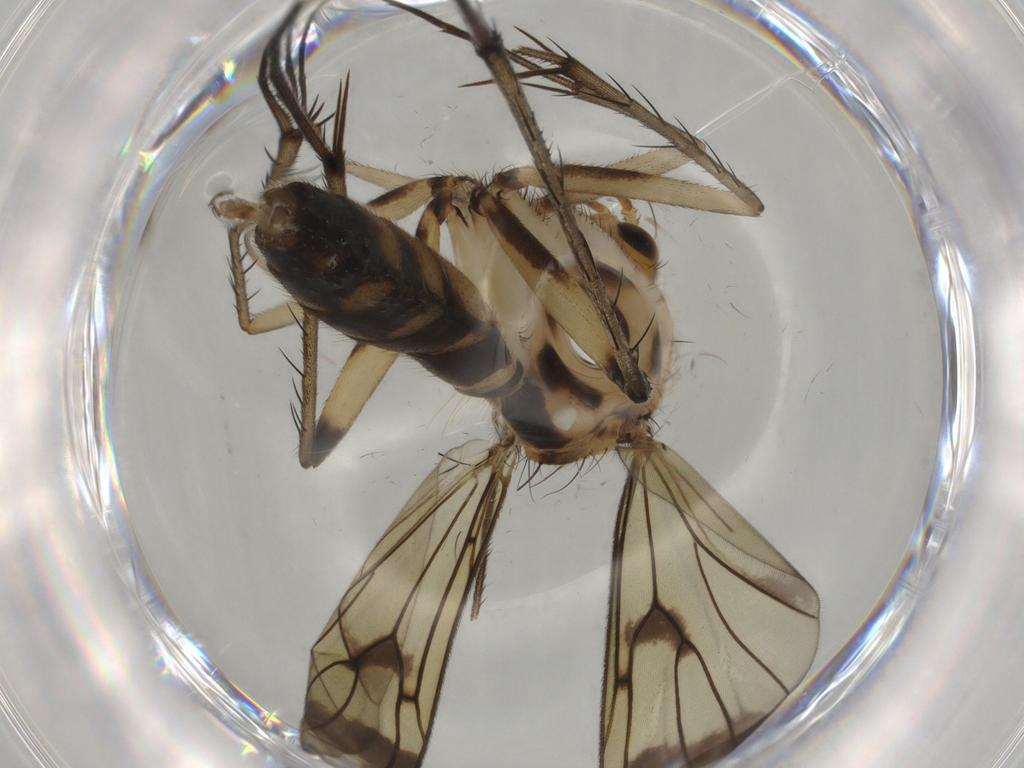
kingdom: Animalia
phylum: Arthropoda
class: Insecta
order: Diptera
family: Mycetophilidae
